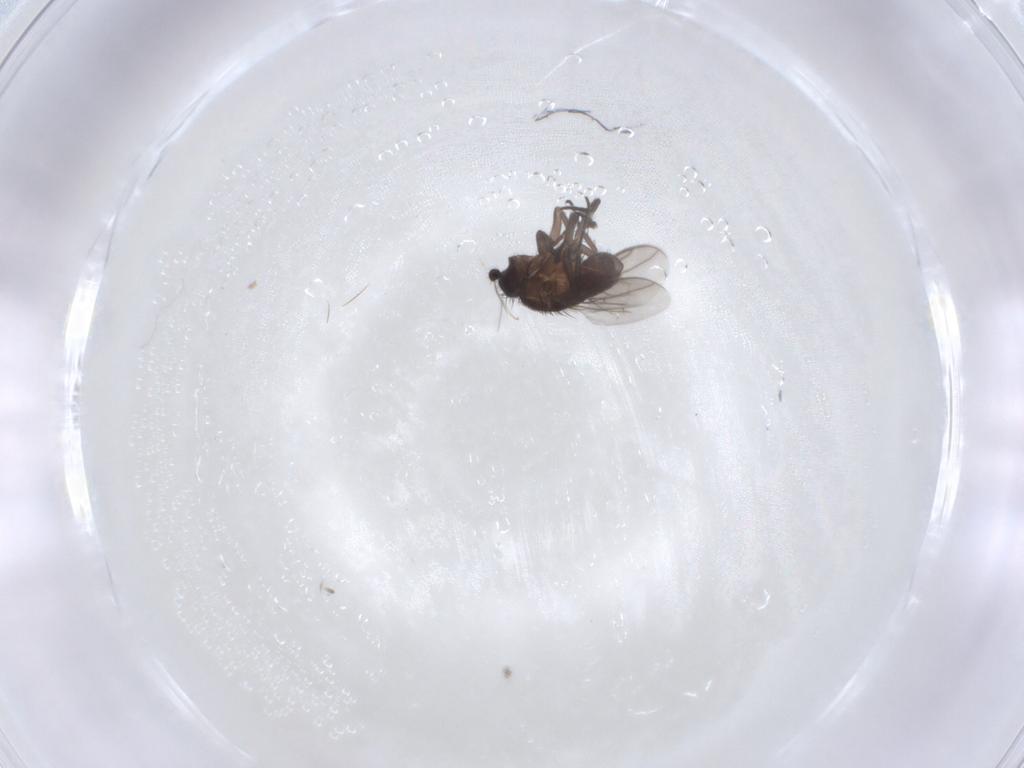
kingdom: Animalia
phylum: Arthropoda
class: Insecta
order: Diptera
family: Sphaeroceridae
